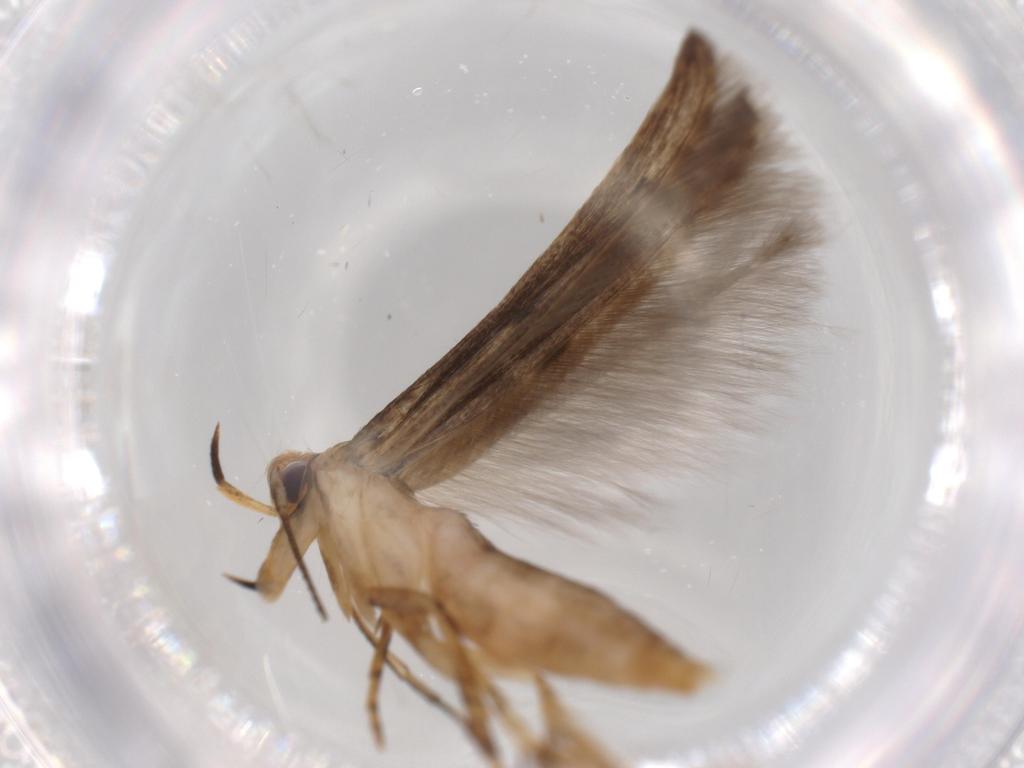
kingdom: Animalia
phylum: Arthropoda
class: Insecta
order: Lepidoptera
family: Heliodinidae
